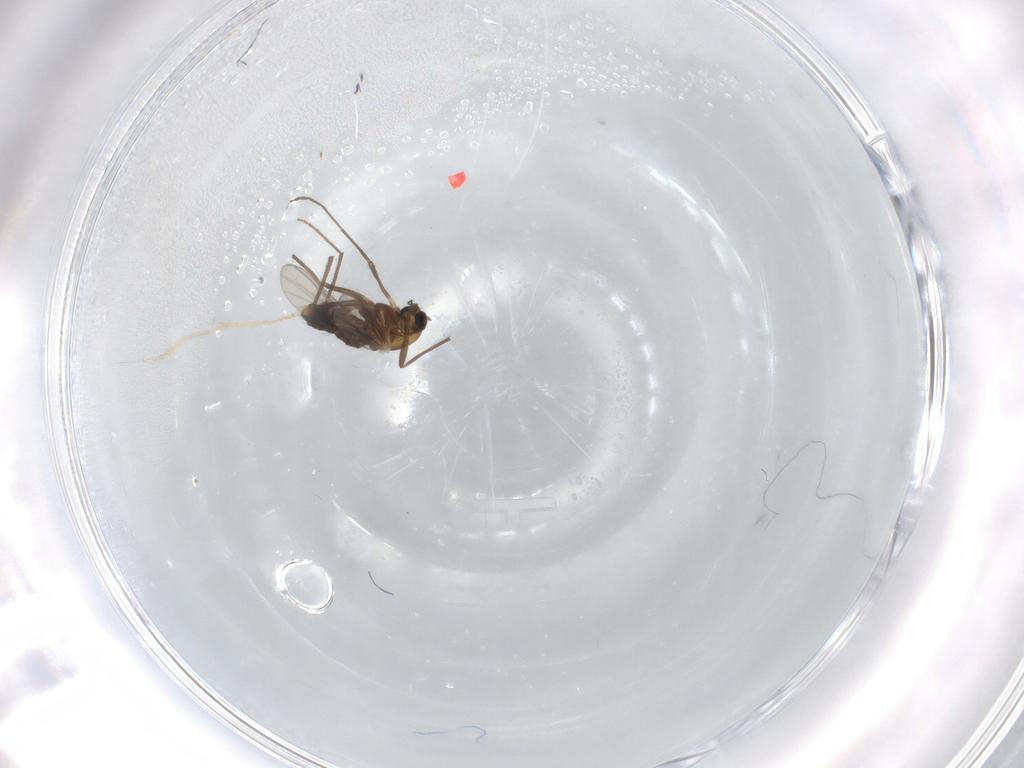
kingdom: Animalia
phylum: Arthropoda
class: Insecta
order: Diptera
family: Chironomidae
